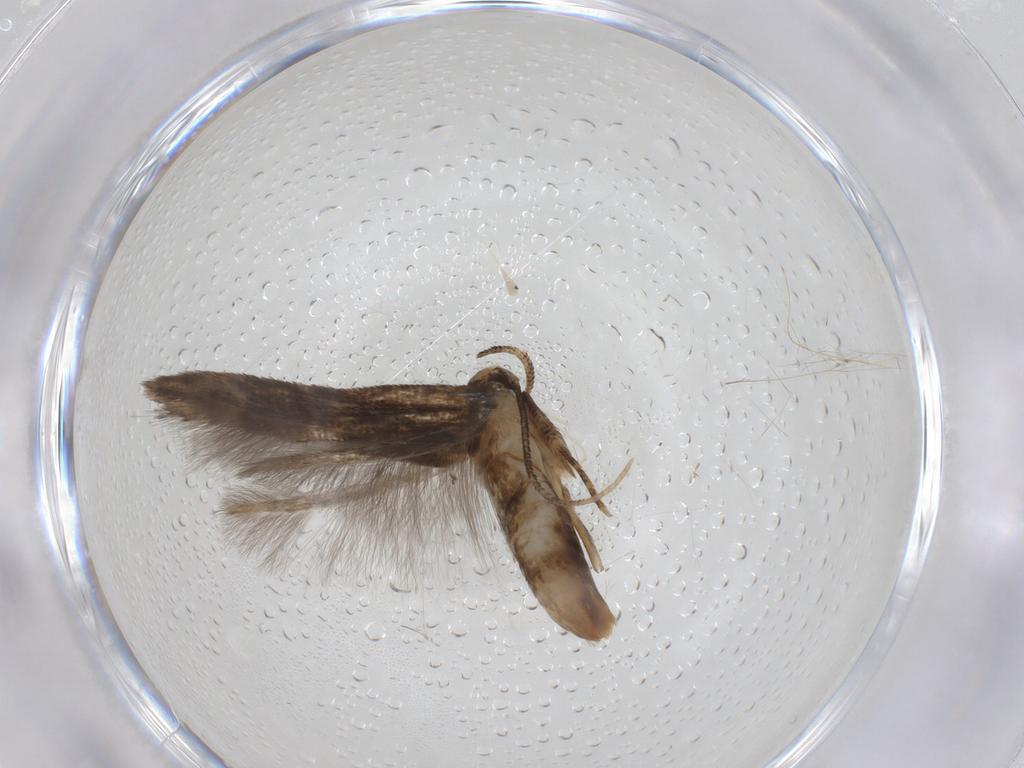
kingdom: Animalia
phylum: Arthropoda
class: Insecta
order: Lepidoptera
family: Cosmopterigidae
